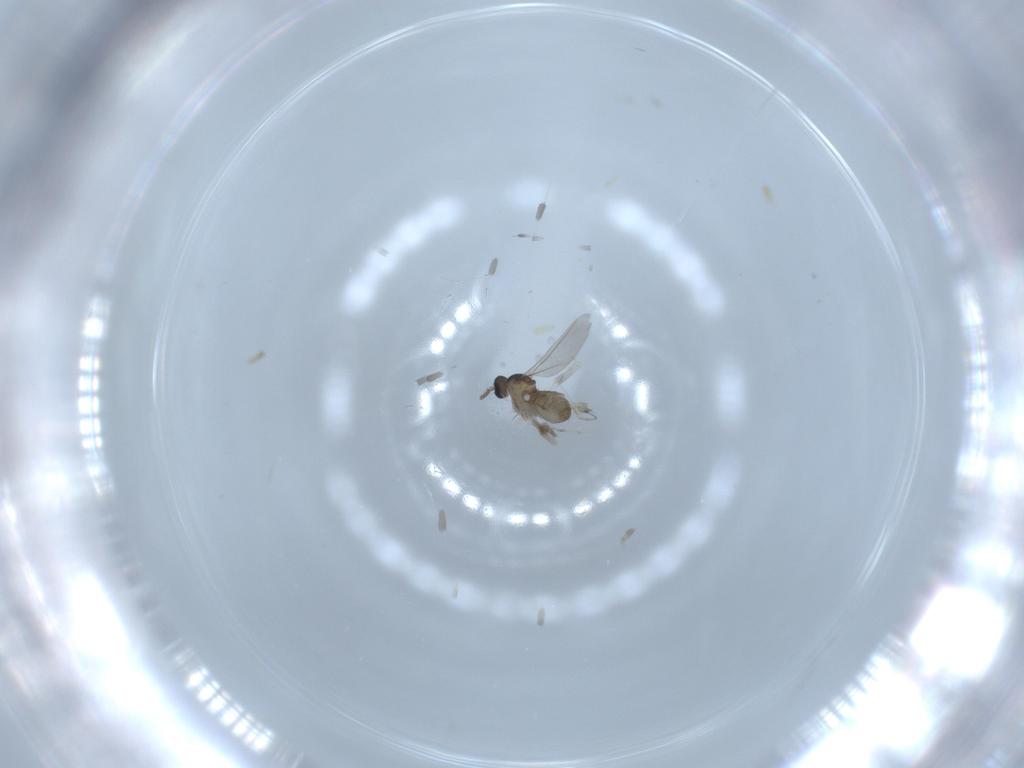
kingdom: Animalia
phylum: Arthropoda
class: Insecta
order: Diptera
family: Cecidomyiidae
